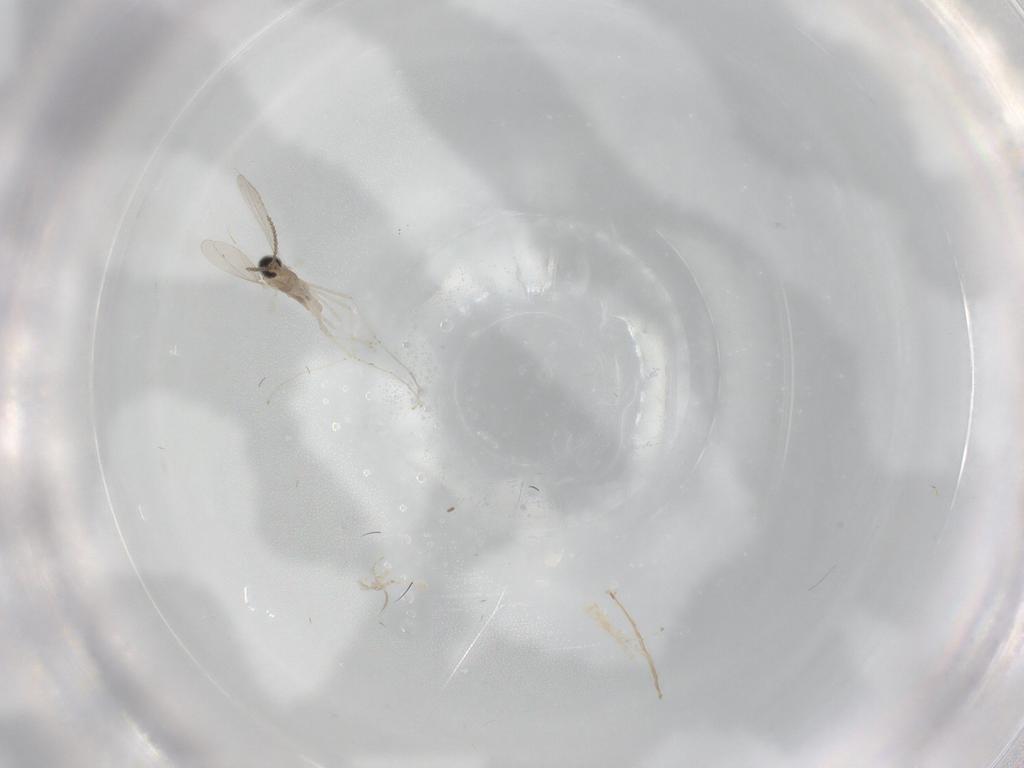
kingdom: Animalia
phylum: Arthropoda
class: Insecta
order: Diptera
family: Cecidomyiidae
